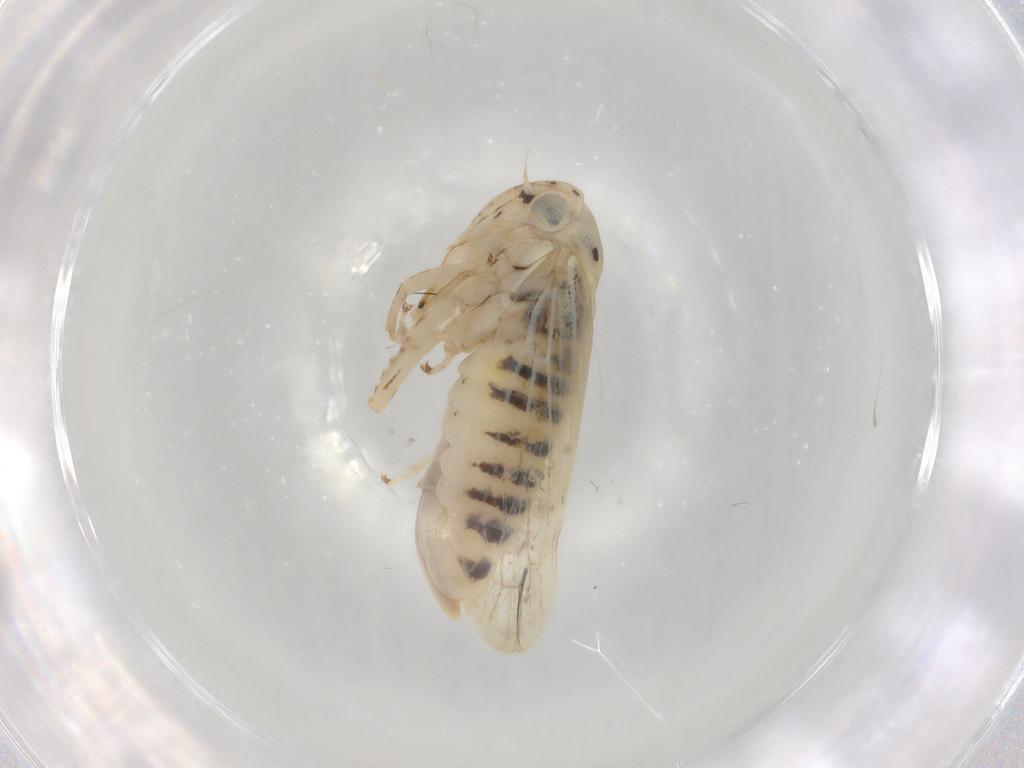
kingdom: Animalia
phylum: Arthropoda
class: Insecta
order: Hemiptera
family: Cicadellidae
